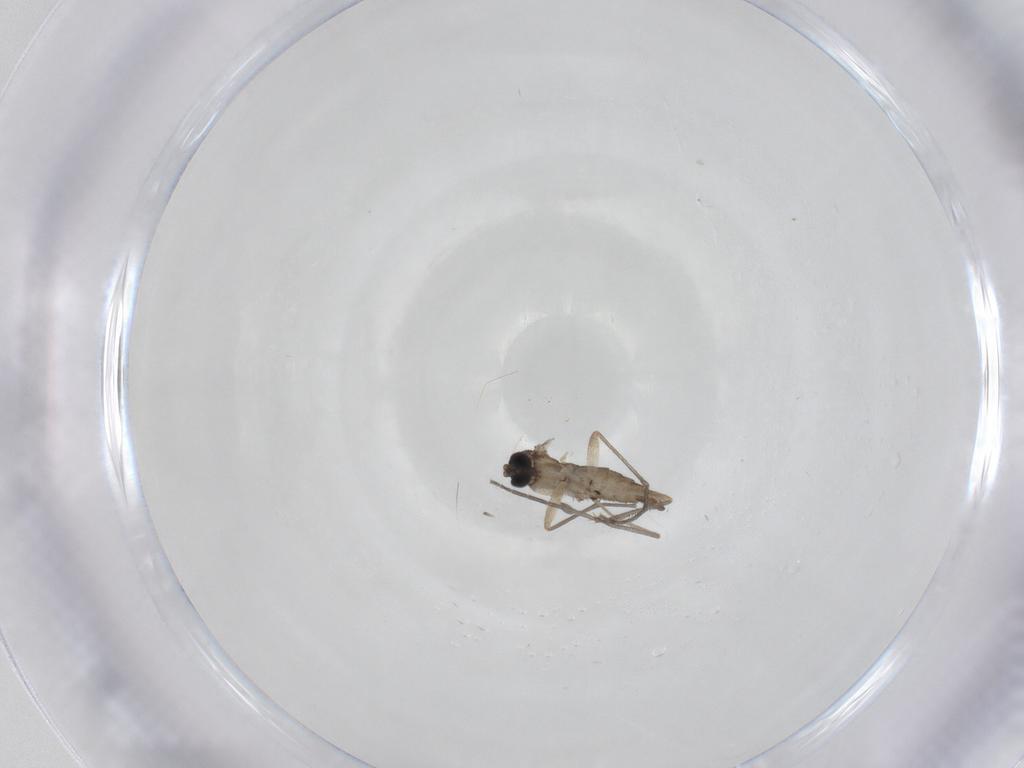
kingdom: Animalia
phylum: Arthropoda
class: Insecta
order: Diptera
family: Sciaridae
